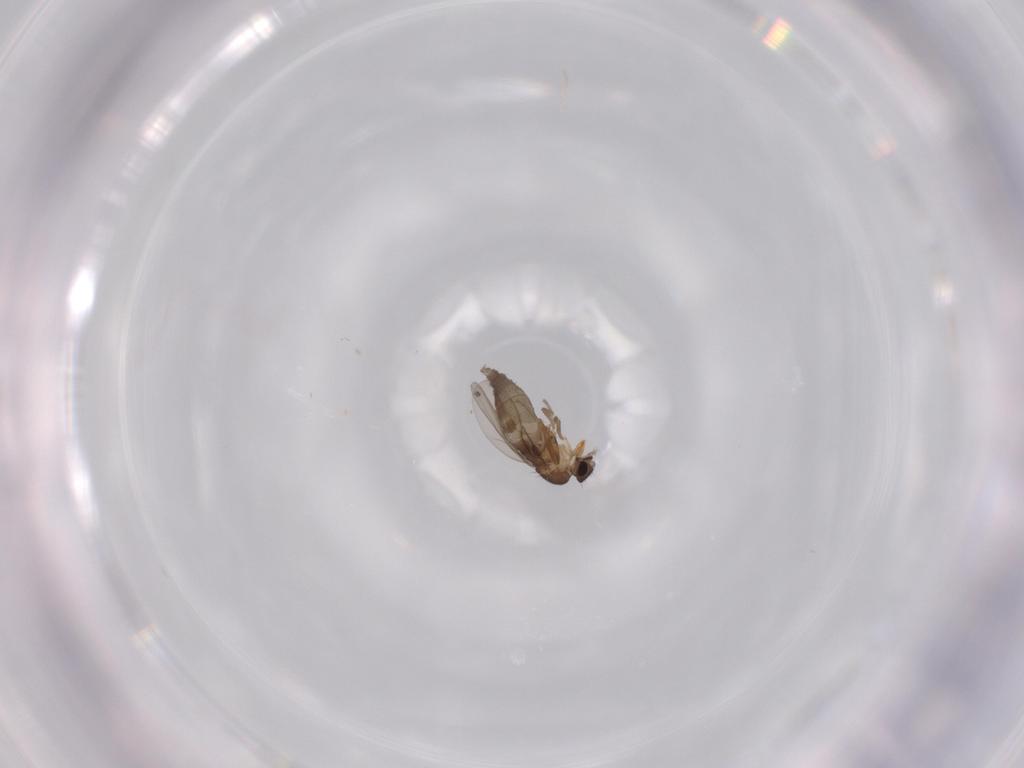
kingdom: Animalia
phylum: Arthropoda
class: Insecta
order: Diptera
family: Phoridae
